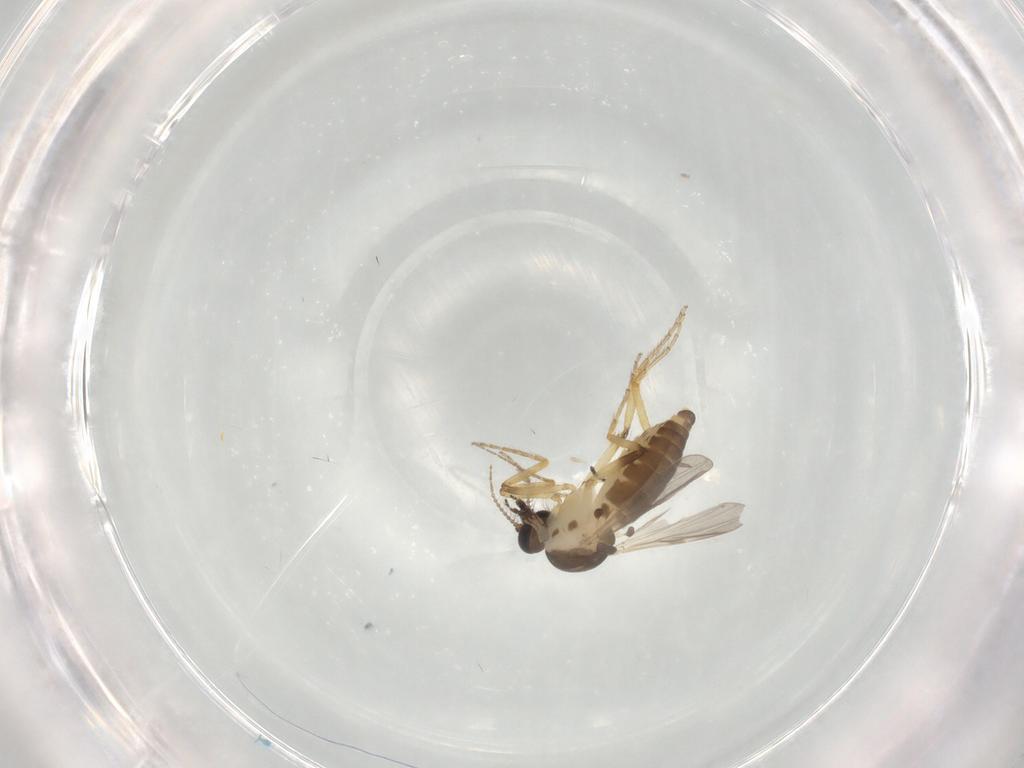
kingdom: Animalia
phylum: Arthropoda
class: Insecta
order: Diptera
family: Ceratopogonidae
